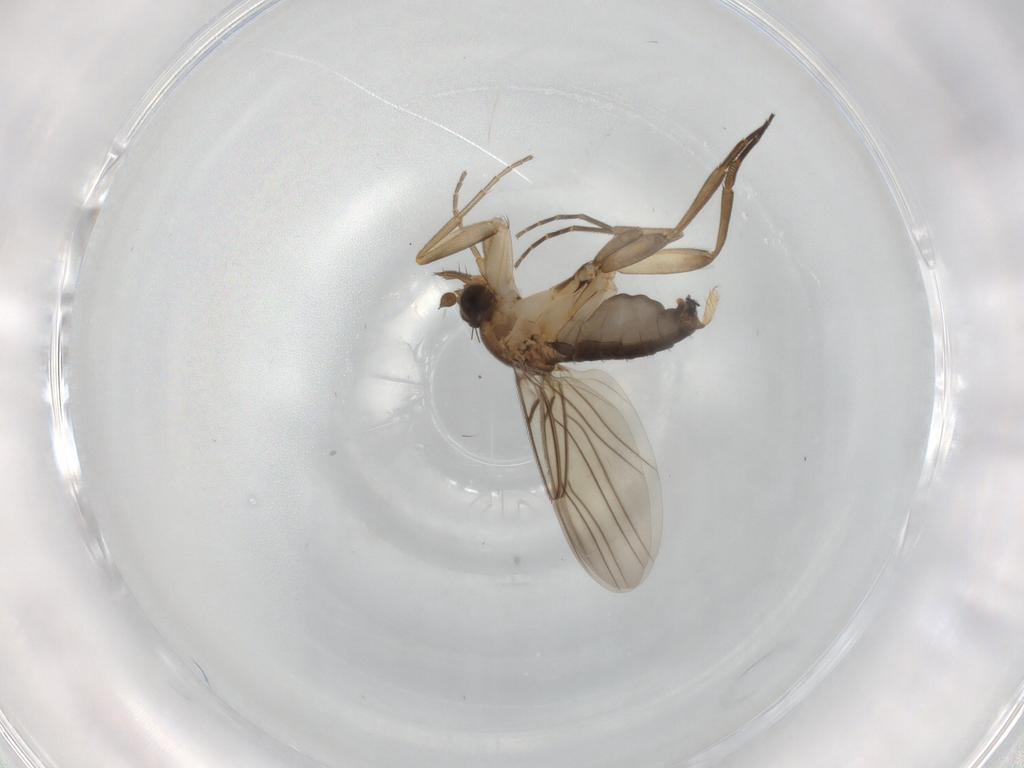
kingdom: Animalia
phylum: Arthropoda
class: Insecta
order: Diptera
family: Phoridae
